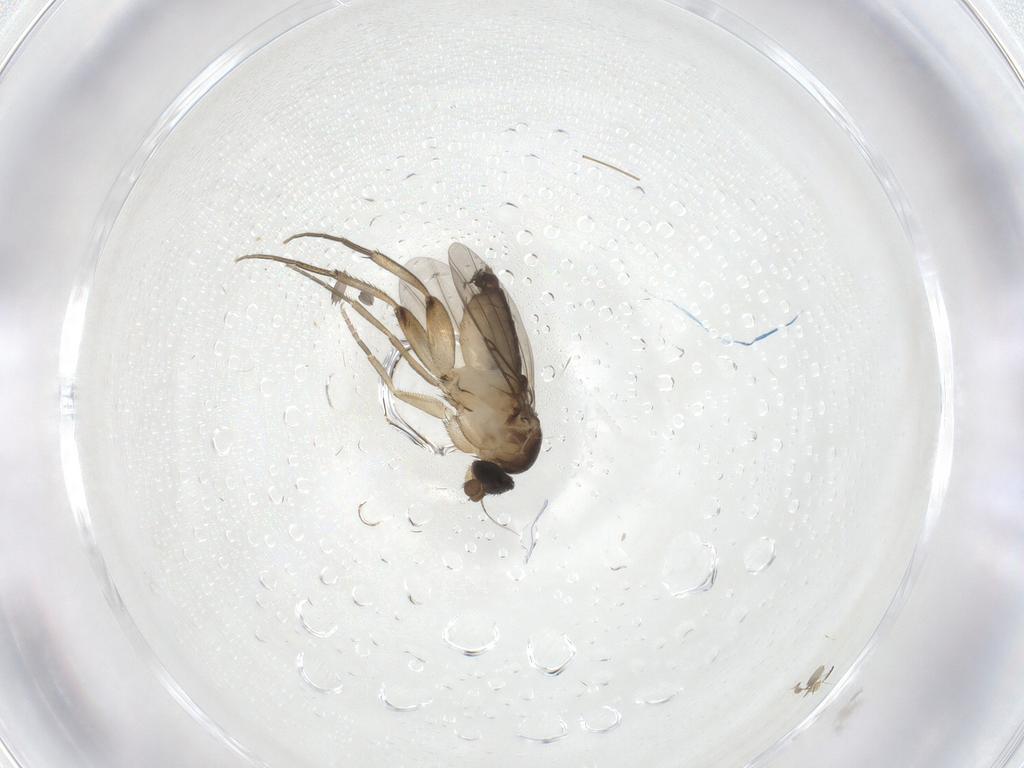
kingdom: Animalia
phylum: Arthropoda
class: Insecta
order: Diptera
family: Phoridae
